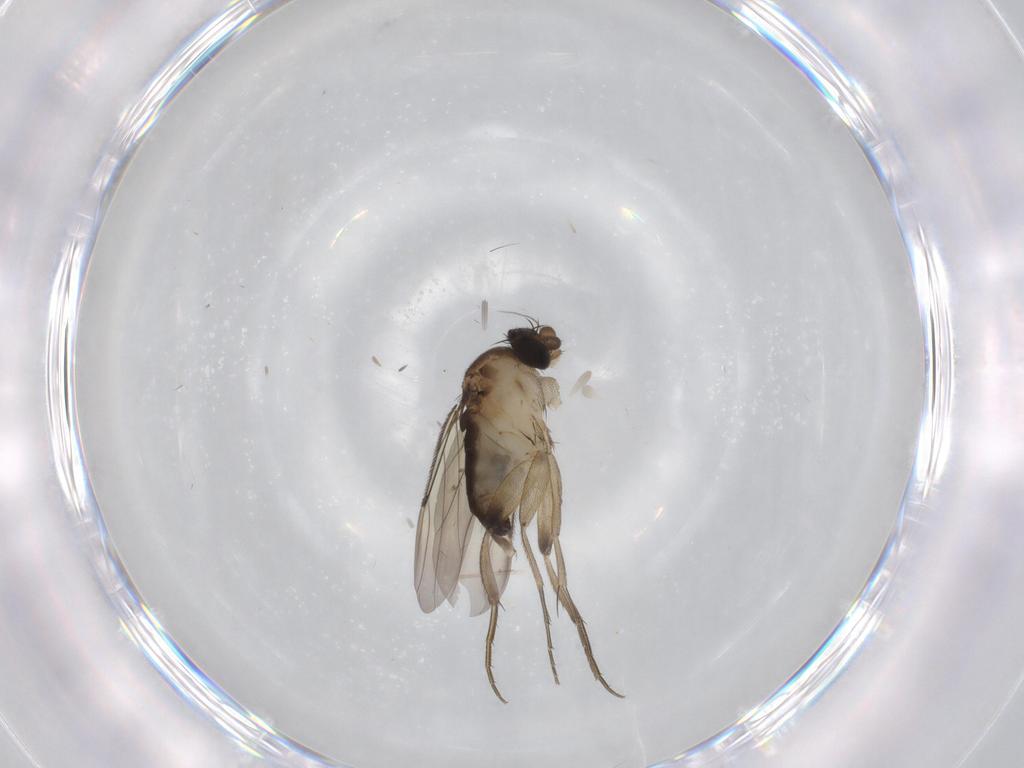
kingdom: Animalia
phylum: Arthropoda
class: Insecta
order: Diptera
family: Phoridae
